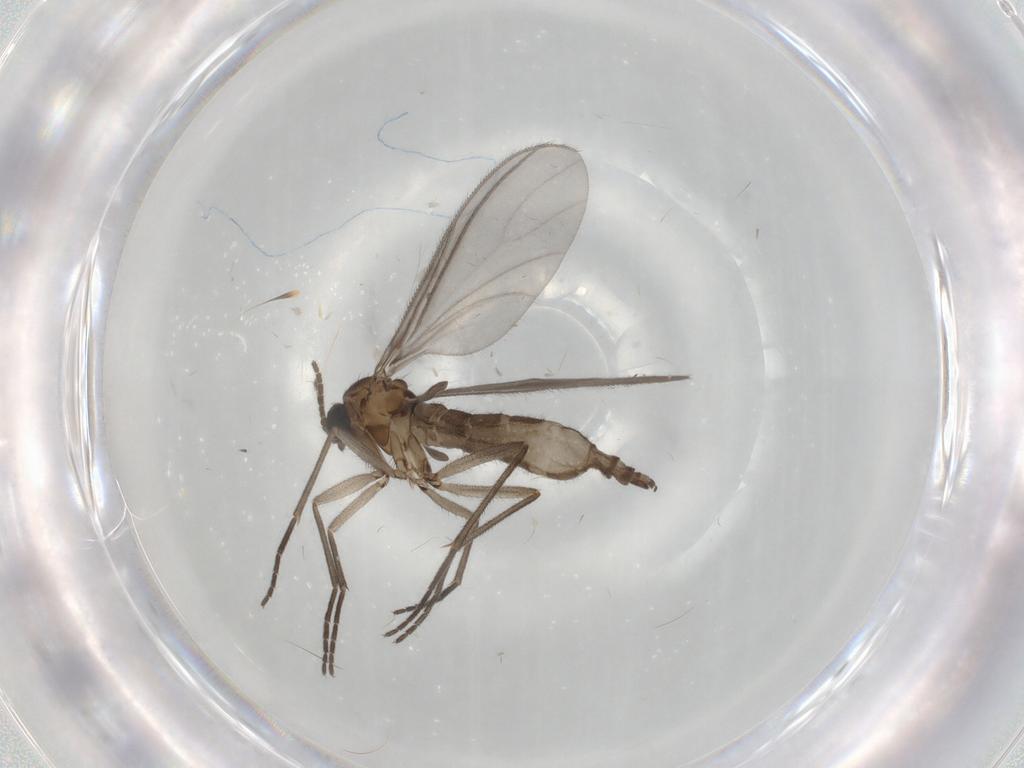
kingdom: Animalia
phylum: Arthropoda
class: Insecta
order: Diptera
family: Sciaridae
